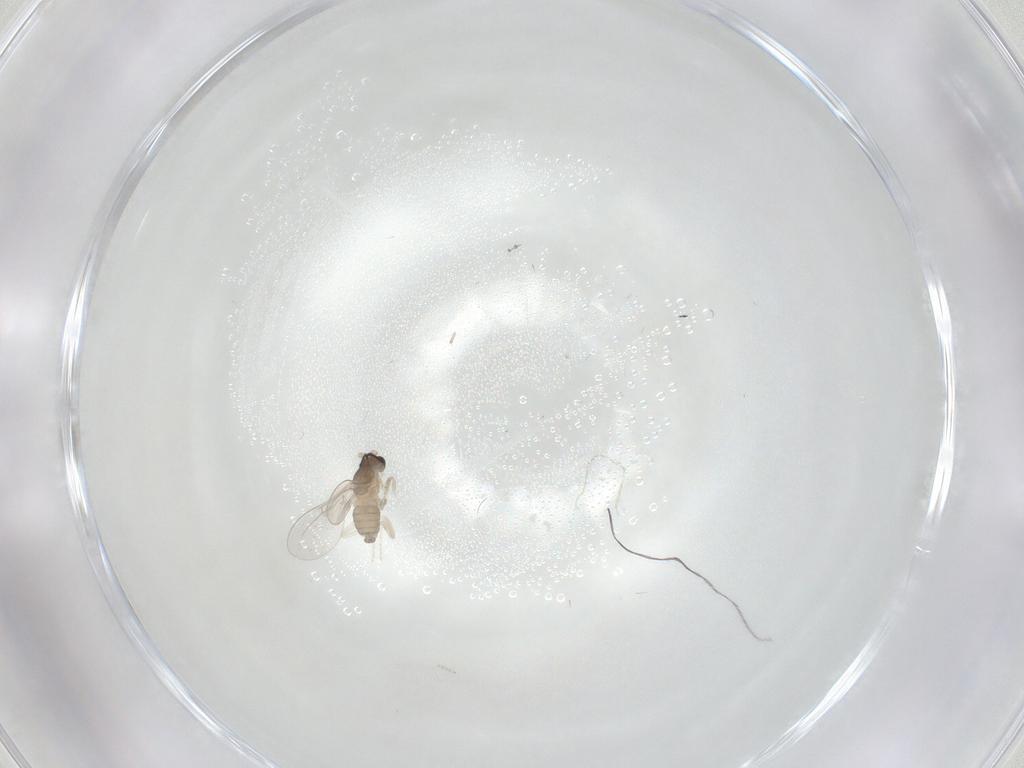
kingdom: Animalia
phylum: Arthropoda
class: Insecta
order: Diptera
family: Cecidomyiidae
